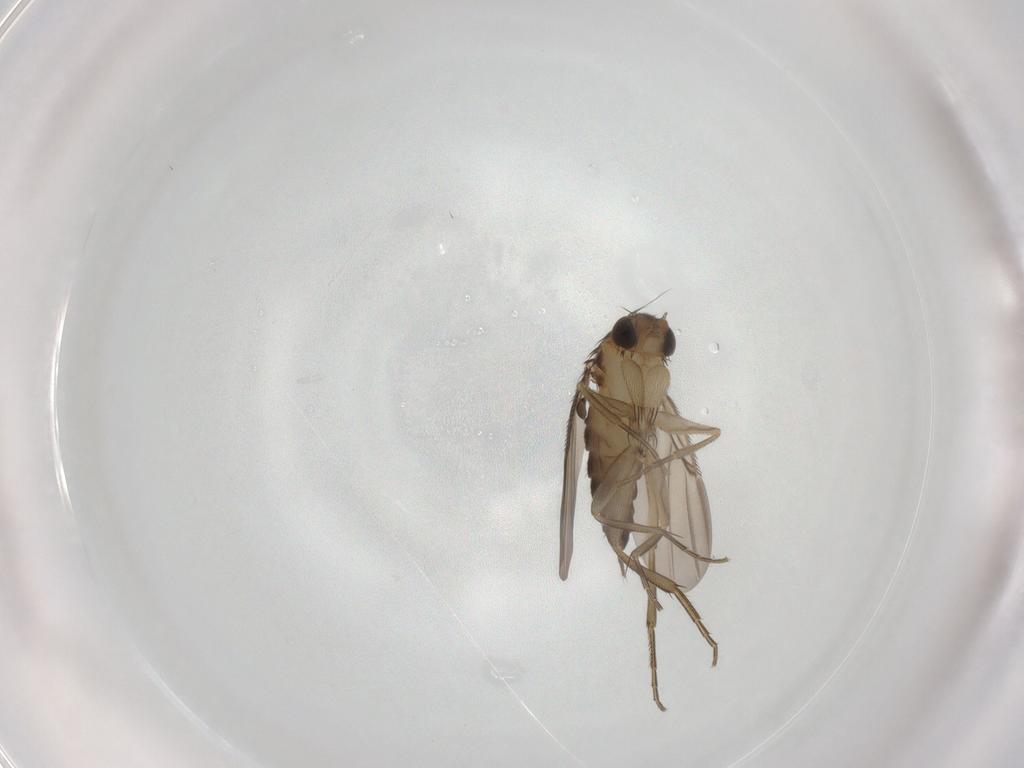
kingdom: Animalia
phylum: Arthropoda
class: Insecta
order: Diptera
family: Phoridae
